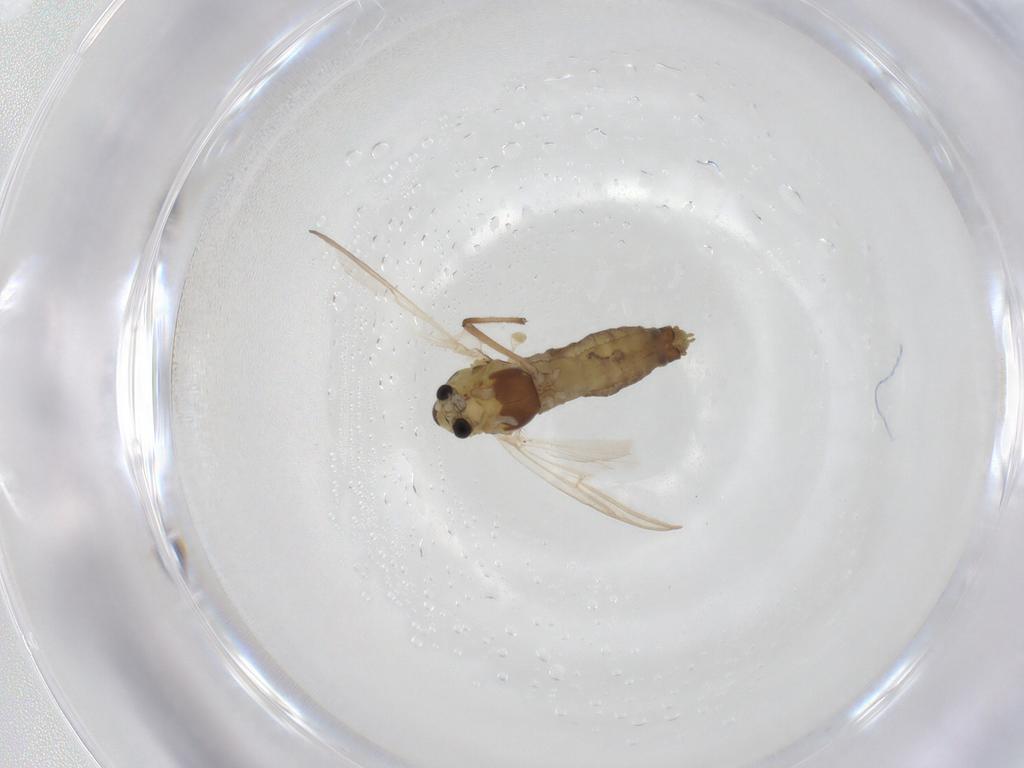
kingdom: Animalia
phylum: Arthropoda
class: Insecta
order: Diptera
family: Chironomidae
